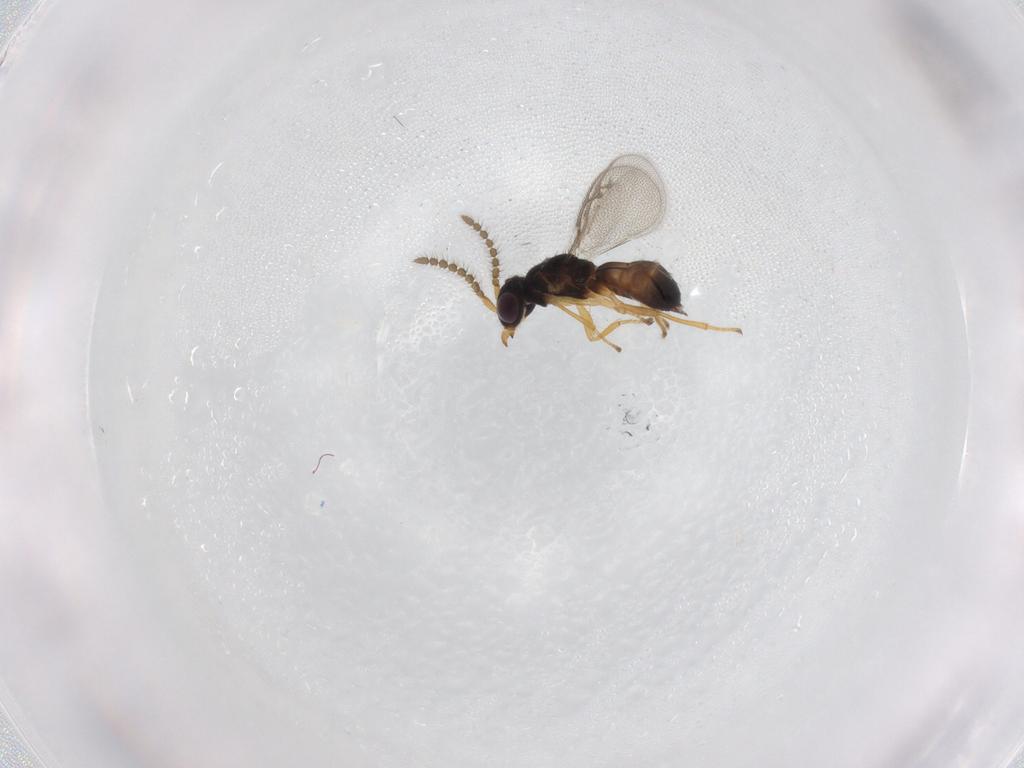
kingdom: Animalia
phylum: Arthropoda
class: Insecta
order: Hymenoptera
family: Pirenidae
